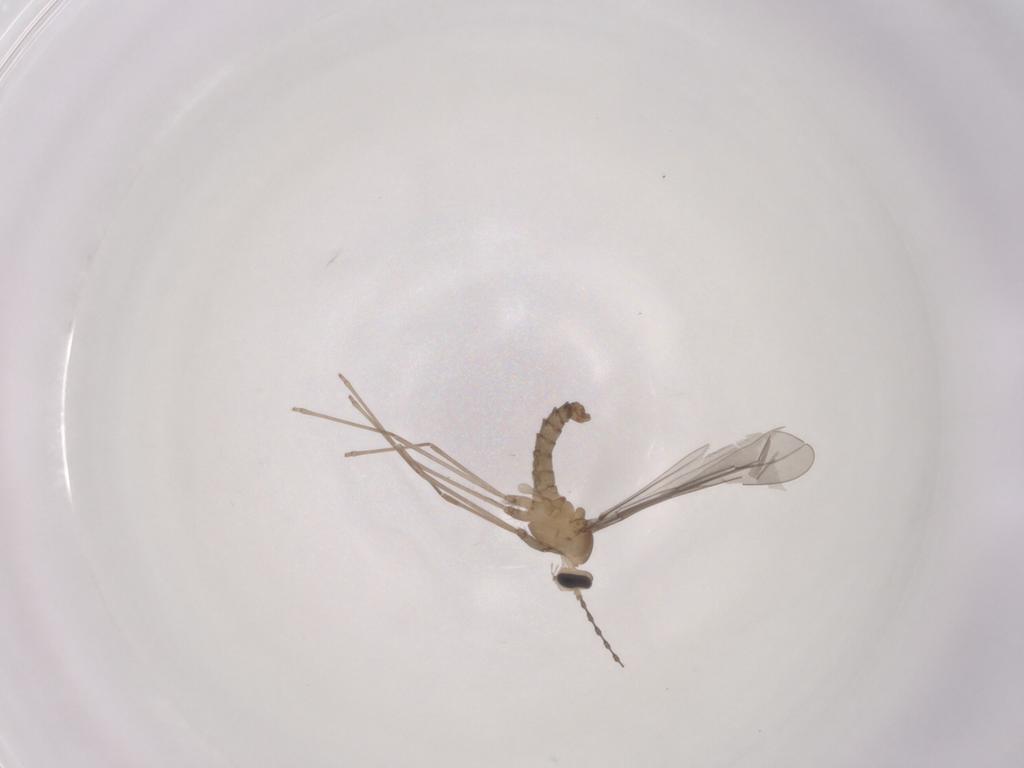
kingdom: Animalia
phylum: Arthropoda
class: Insecta
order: Diptera
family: Cecidomyiidae
